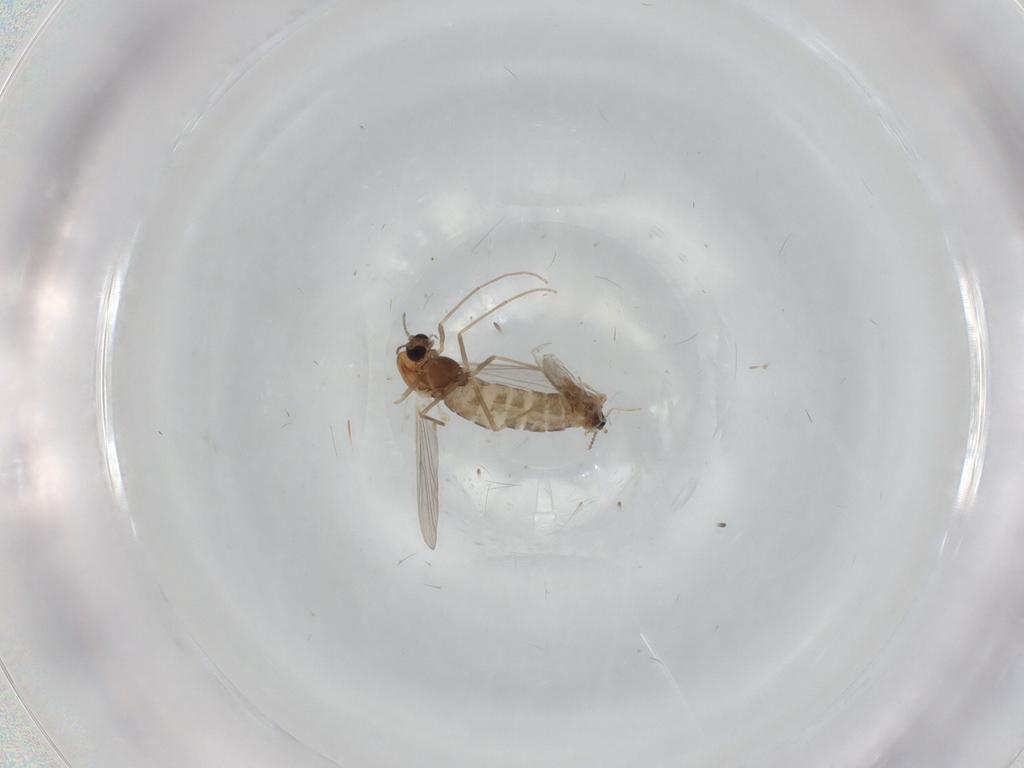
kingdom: Animalia
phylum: Arthropoda
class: Insecta
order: Diptera
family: Chironomidae
